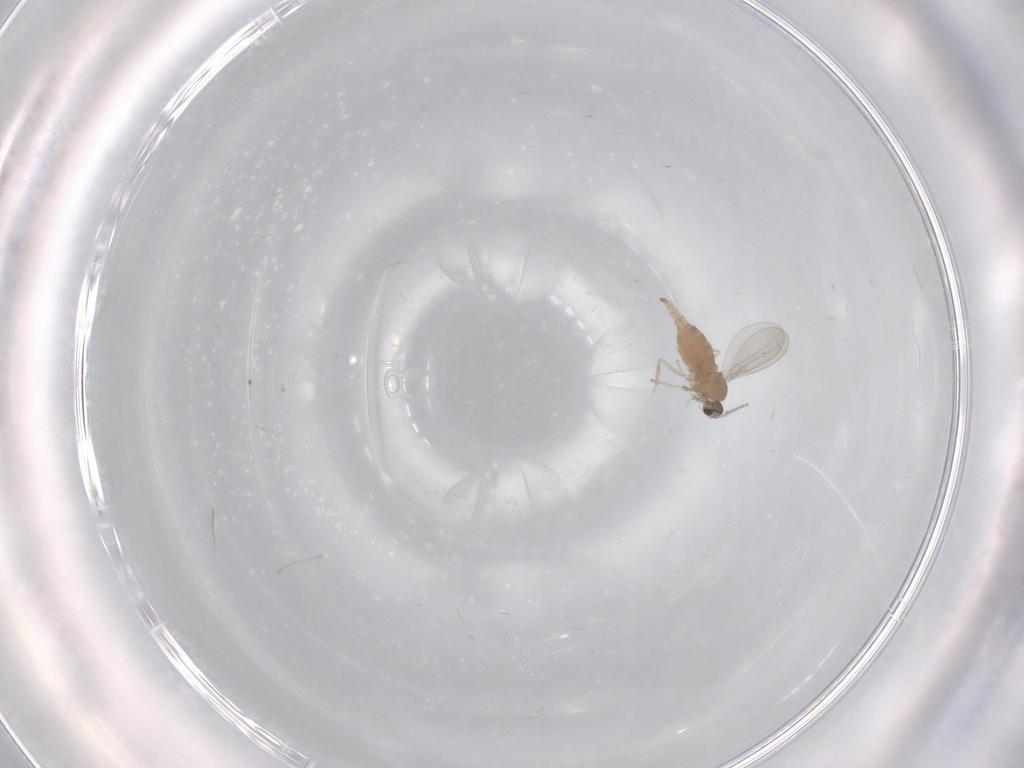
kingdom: Animalia
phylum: Arthropoda
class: Insecta
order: Diptera
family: Cecidomyiidae
